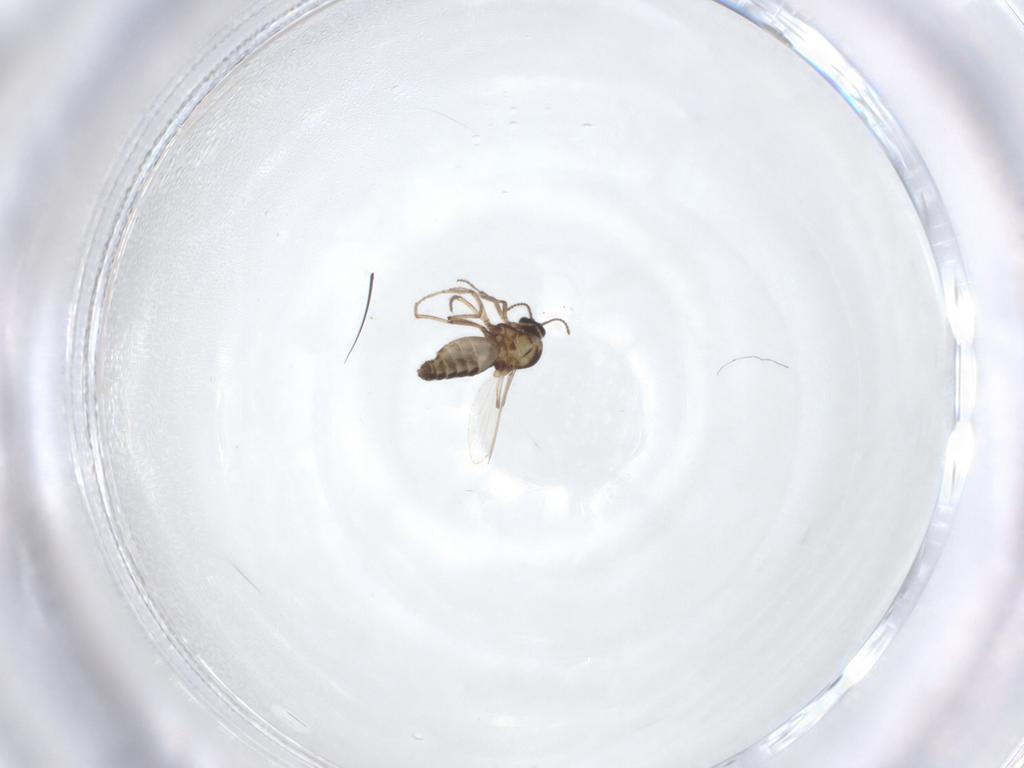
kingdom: Animalia
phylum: Arthropoda
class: Insecta
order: Diptera
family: Ceratopogonidae
